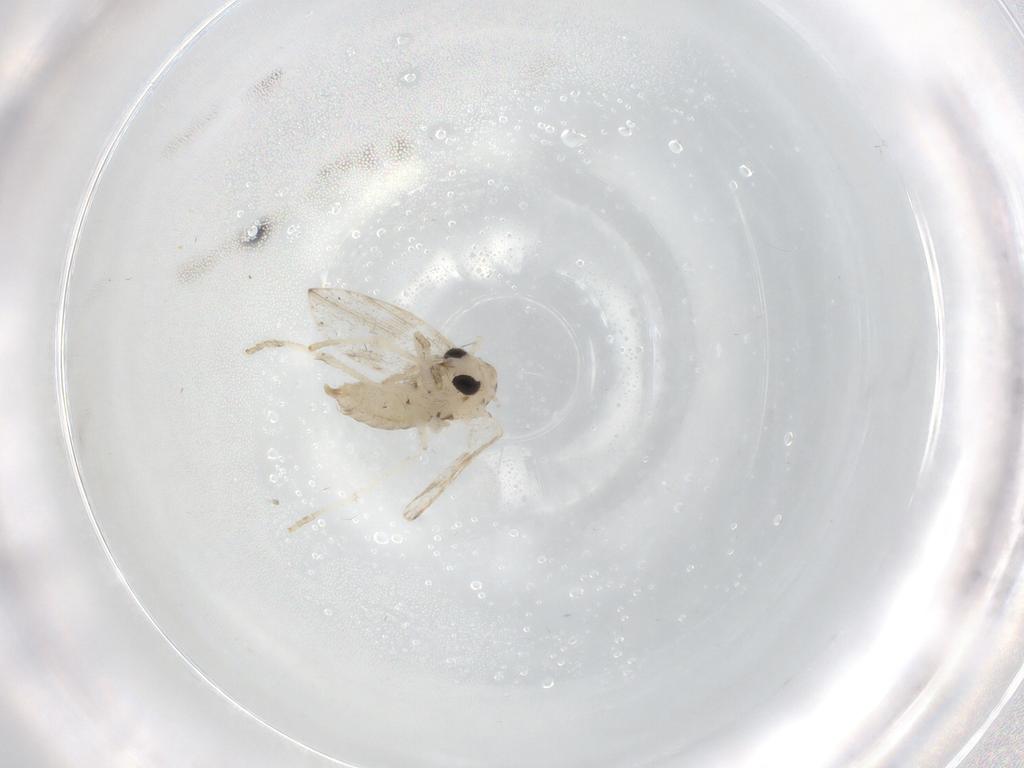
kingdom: Animalia
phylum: Arthropoda
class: Insecta
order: Diptera
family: Psychodidae
